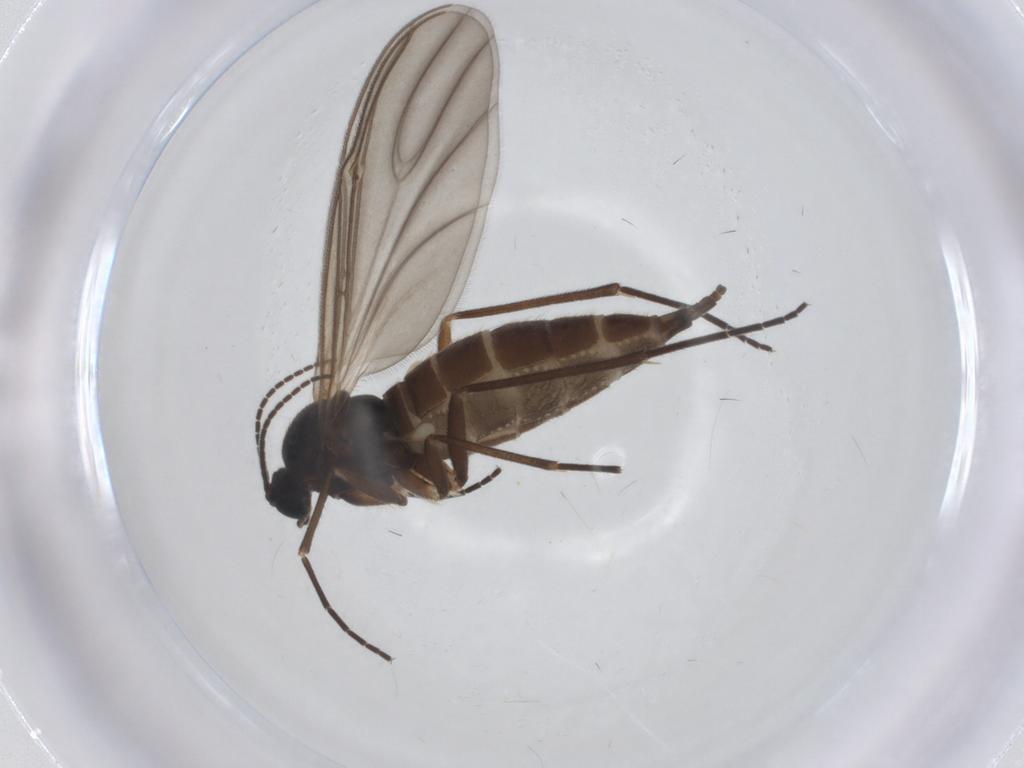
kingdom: Animalia
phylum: Arthropoda
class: Insecta
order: Diptera
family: Sciaridae
